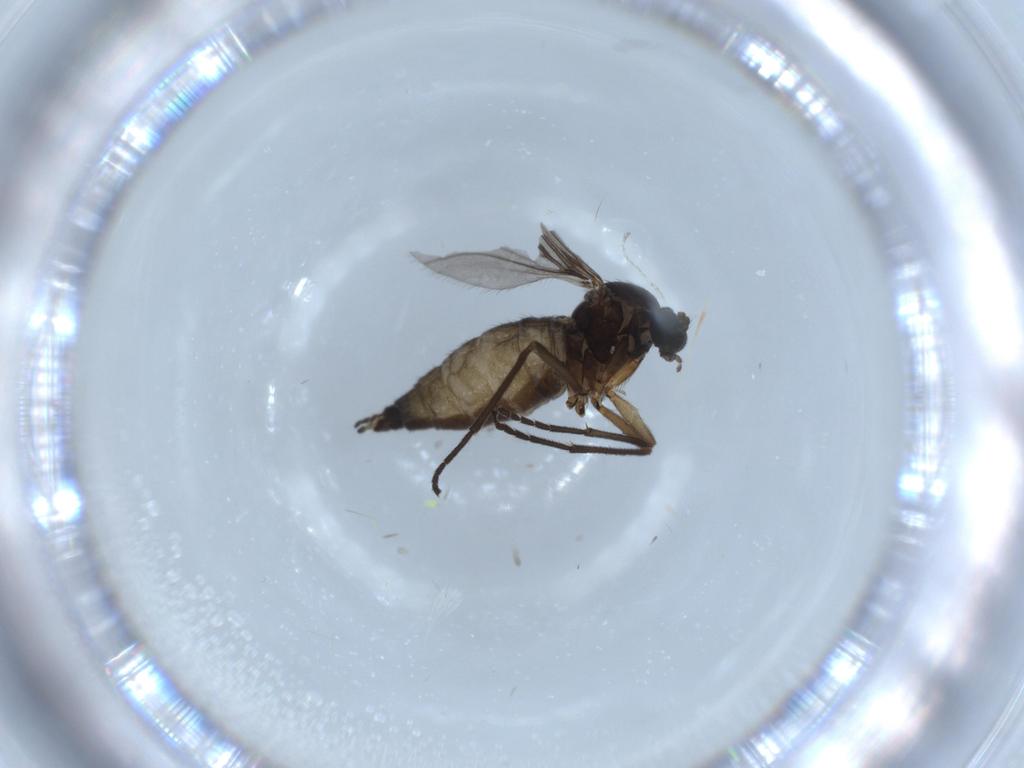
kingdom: Animalia
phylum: Arthropoda
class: Insecta
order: Diptera
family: Sciaridae
